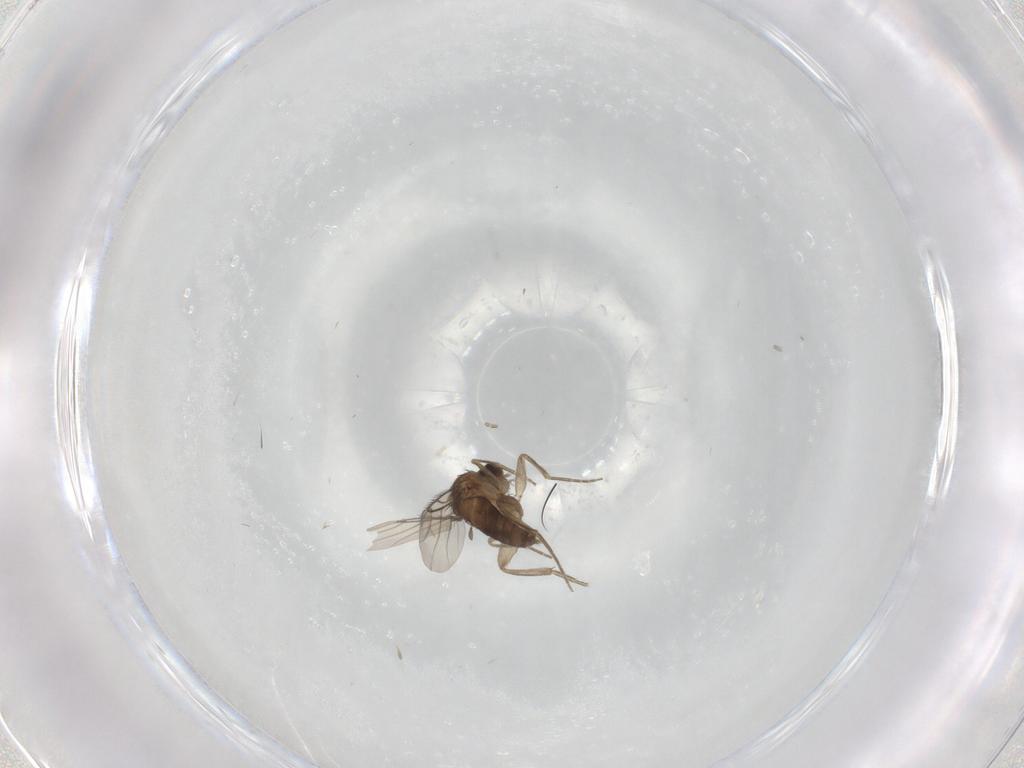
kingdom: Animalia
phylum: Arthropoda
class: Insecta
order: Diptera
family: Phoridae
